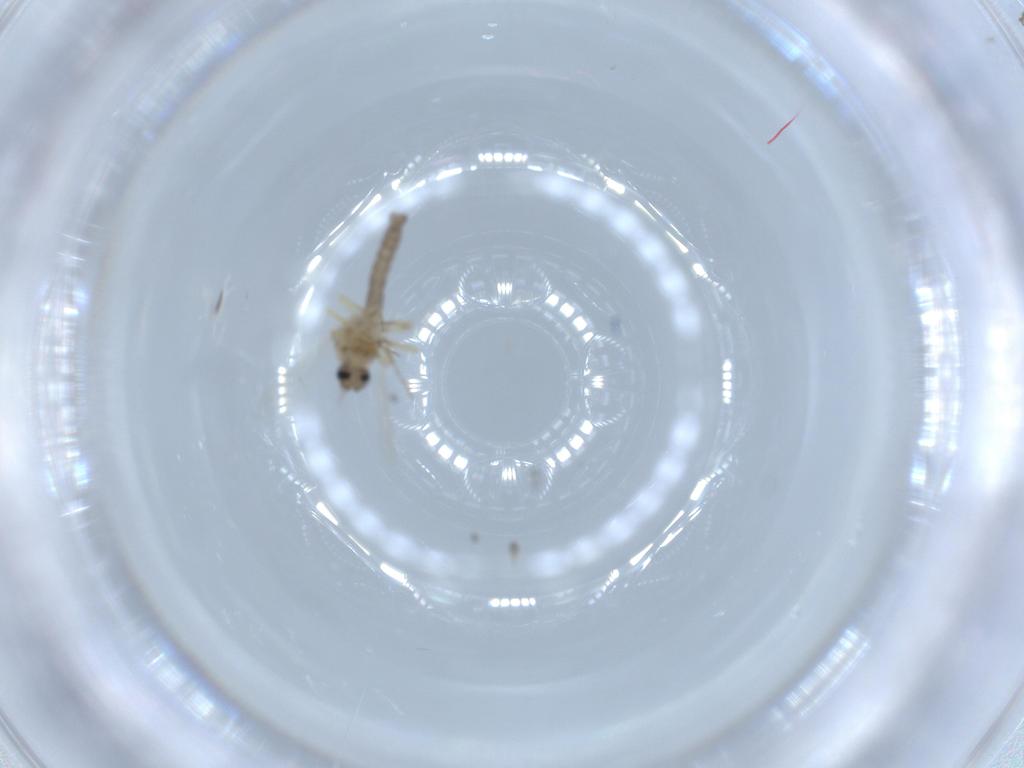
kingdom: Animalia
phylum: Arthropoda
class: Insecta
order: Diptera
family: Ceratopogonidae
